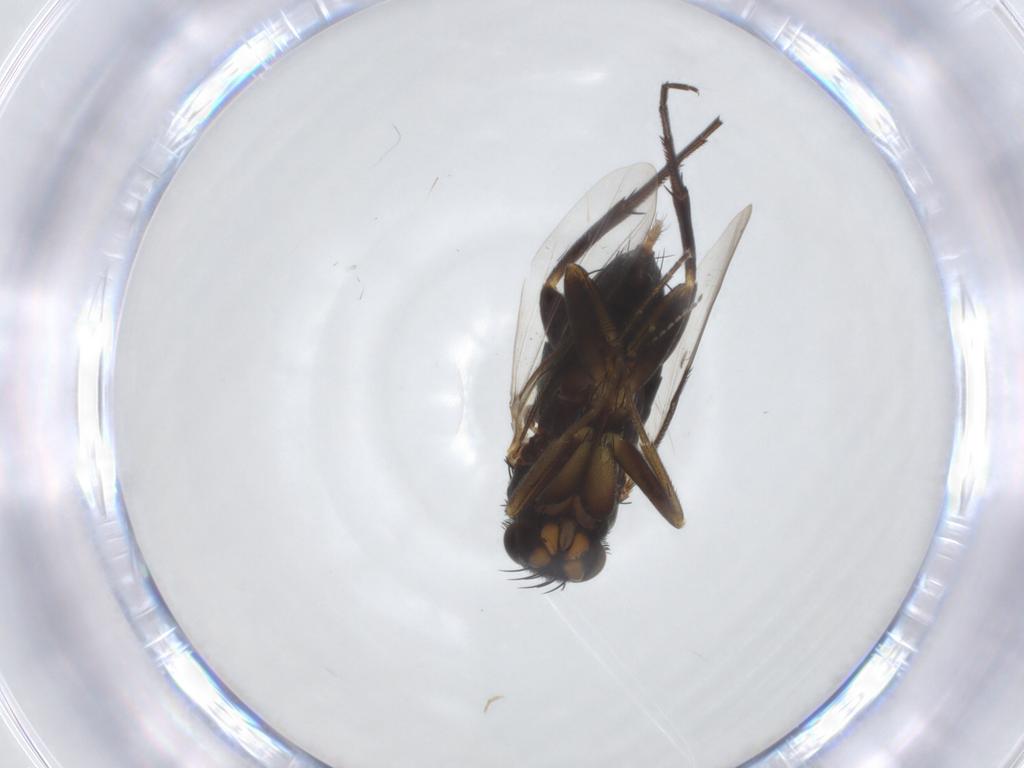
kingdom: Animalia
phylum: Arthropoda
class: Insecta
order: Diptera
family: Phoridae
